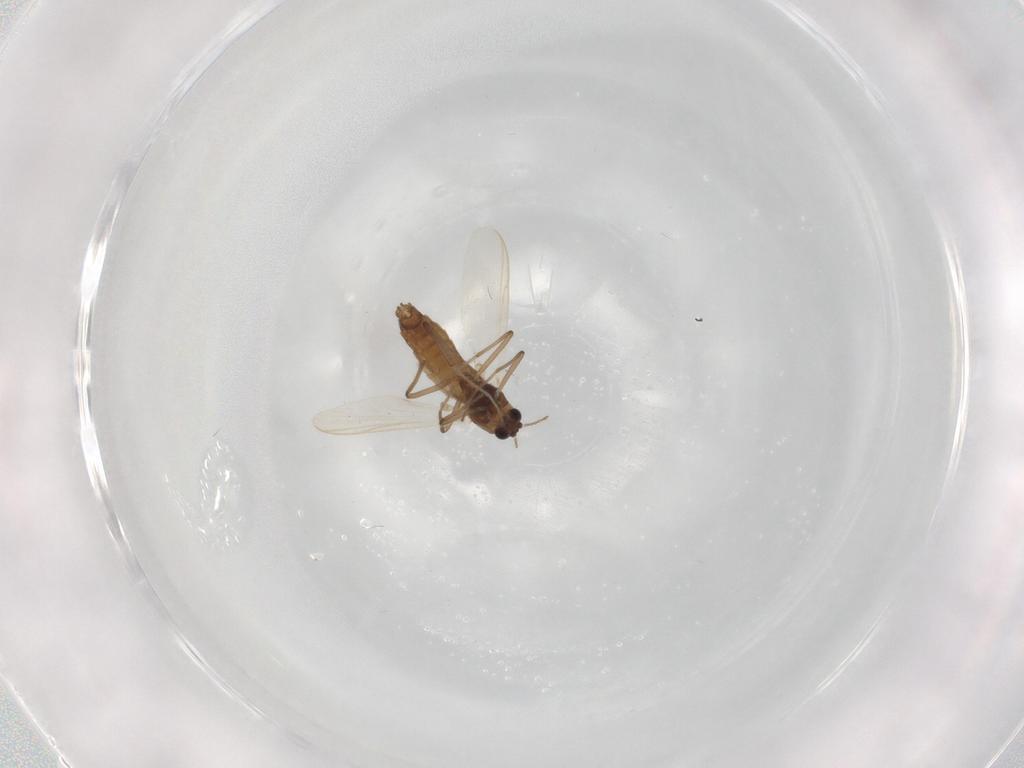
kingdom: Animalia
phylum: Arthropoda
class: Insecta
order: Diptera
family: Chironomidae
